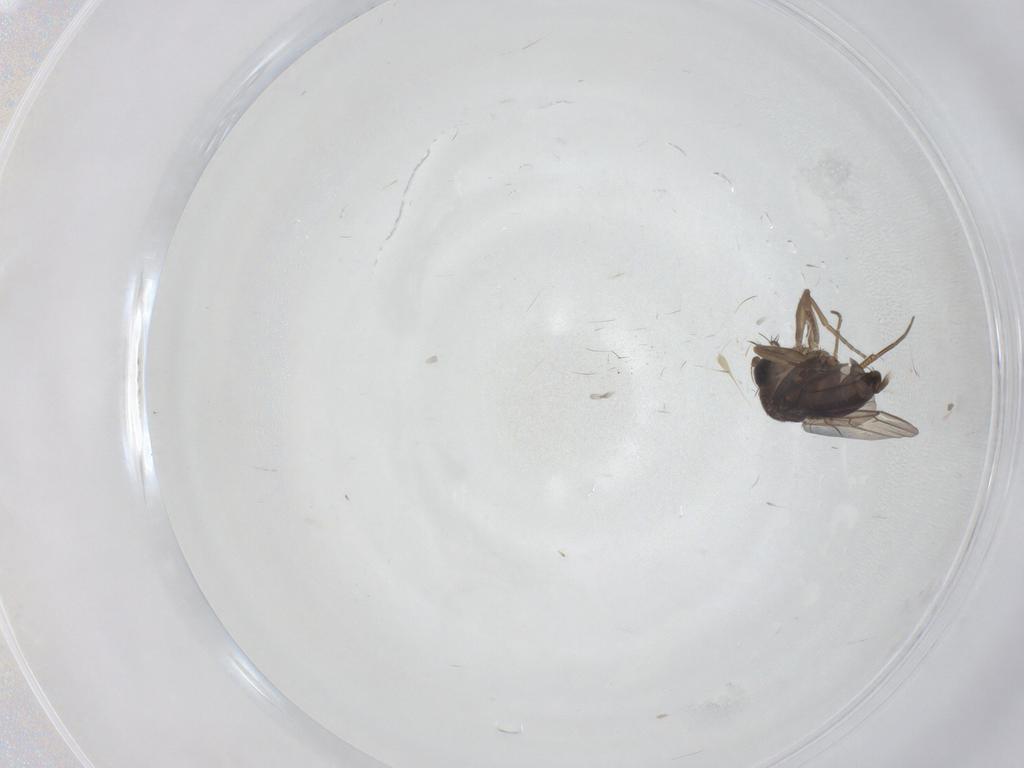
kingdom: Animalia
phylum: Arthropoda
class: Insecta
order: Diptera
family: Phoridae
